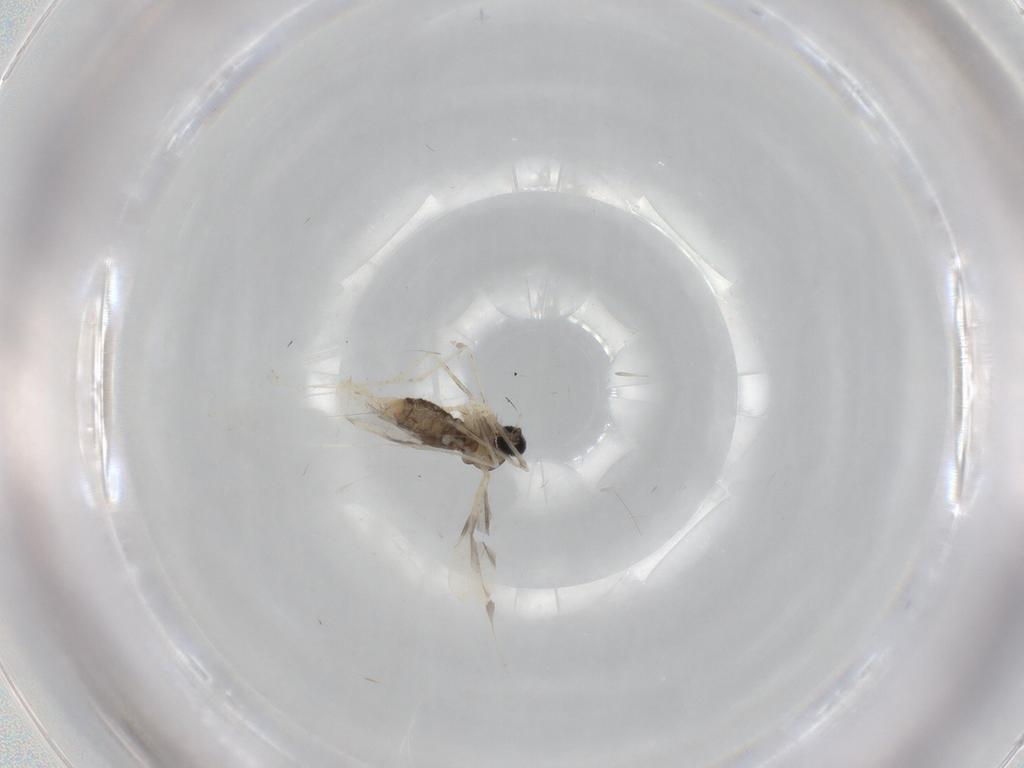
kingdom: Animalia
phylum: Arthropoda
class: Insecta
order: Diptera
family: Cecidomyiidae
